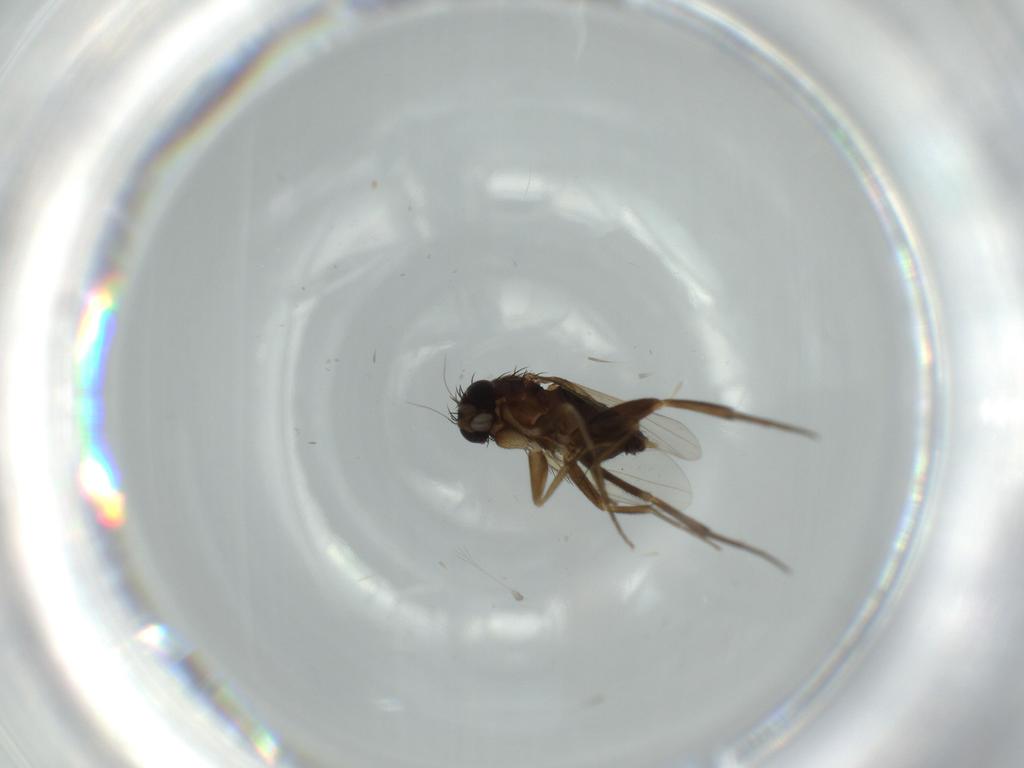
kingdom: Animalia
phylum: Arthropoda
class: Insecta
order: Diptera
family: Phoridae
